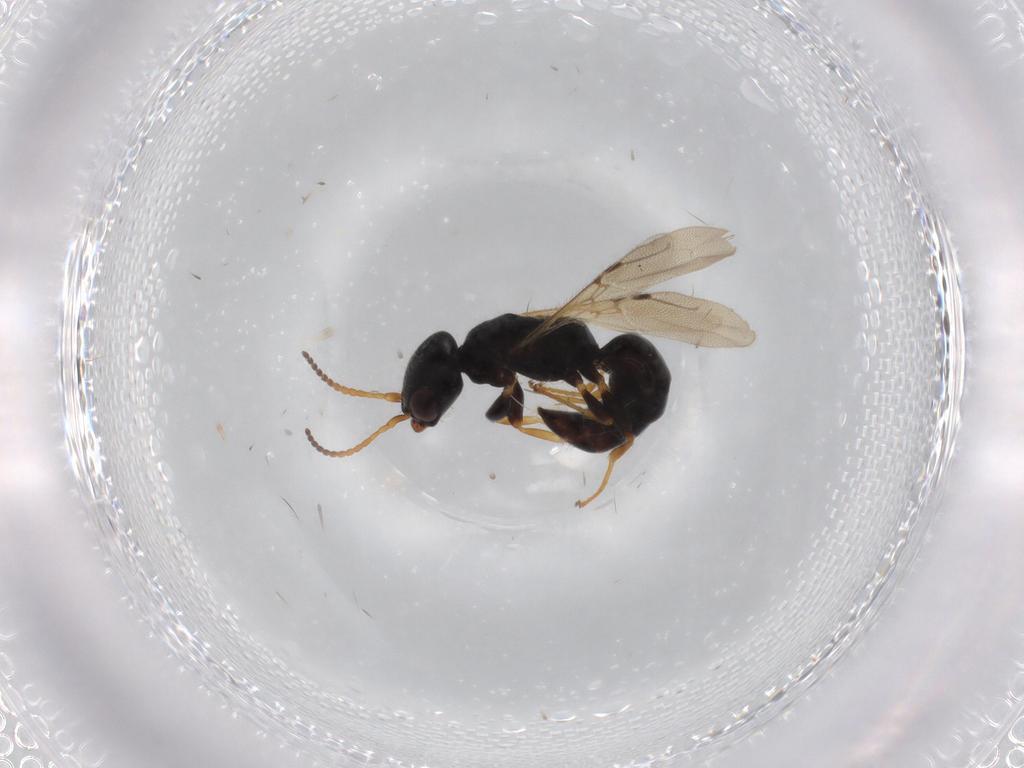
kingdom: Animalia
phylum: Arthropoda
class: Insecta
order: Hymenoptera
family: Bethylidae
